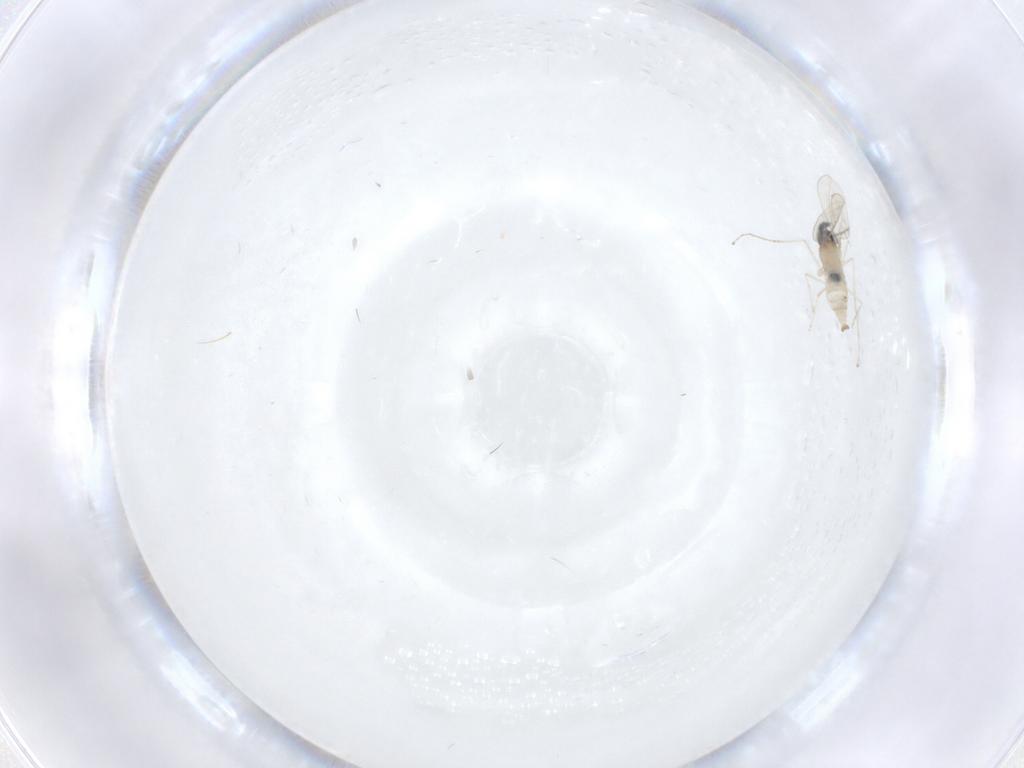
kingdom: Animalia
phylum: Arthropoda
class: Insecta
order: Diptera
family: Cecidomyiidae
